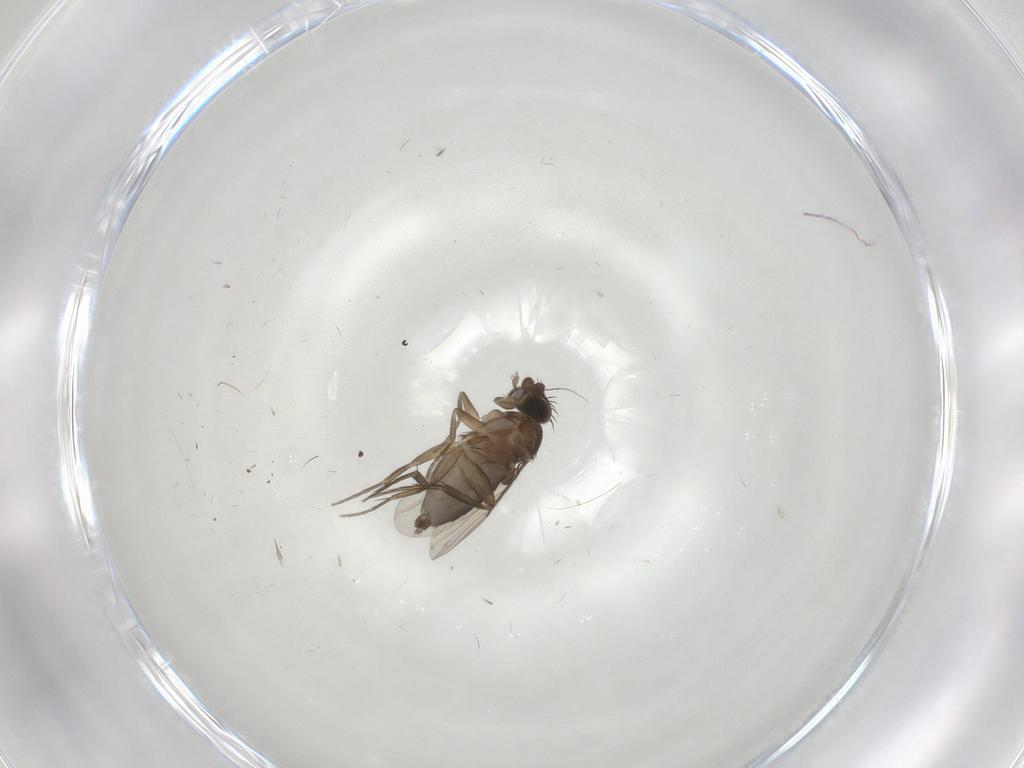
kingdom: Animalia
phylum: Arthropoda
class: Insecta
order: Diptera
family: Phoridae
